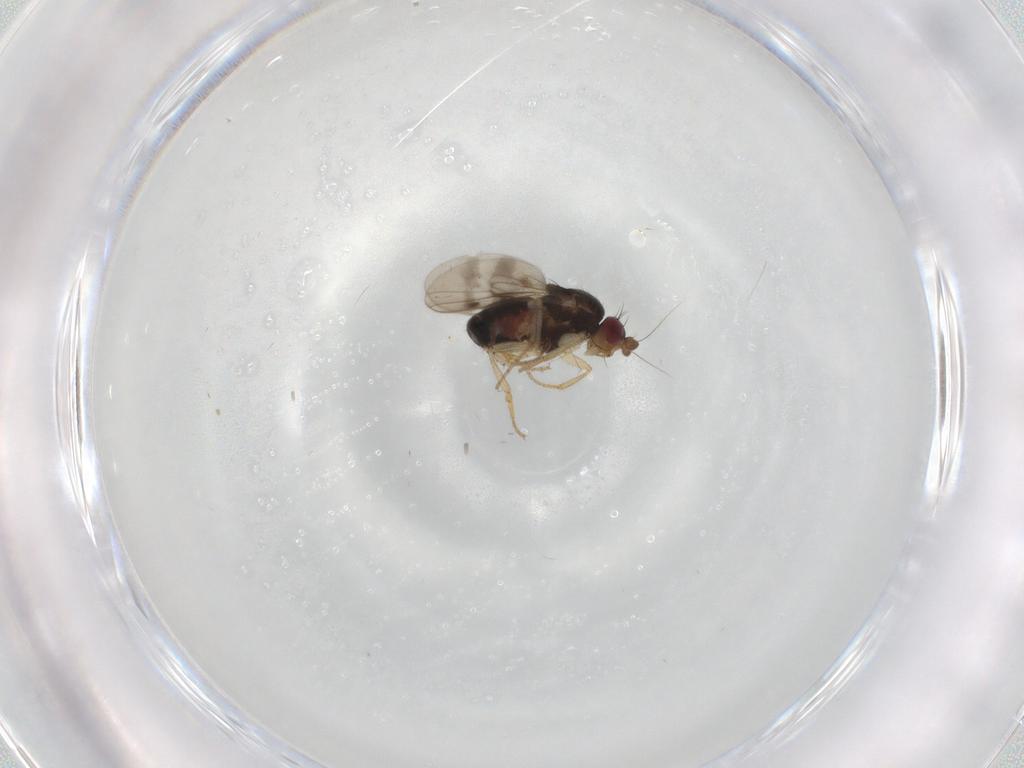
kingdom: Animalia
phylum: Arthropoda
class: Insecta
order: Diptera
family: Sphaeroceridae
